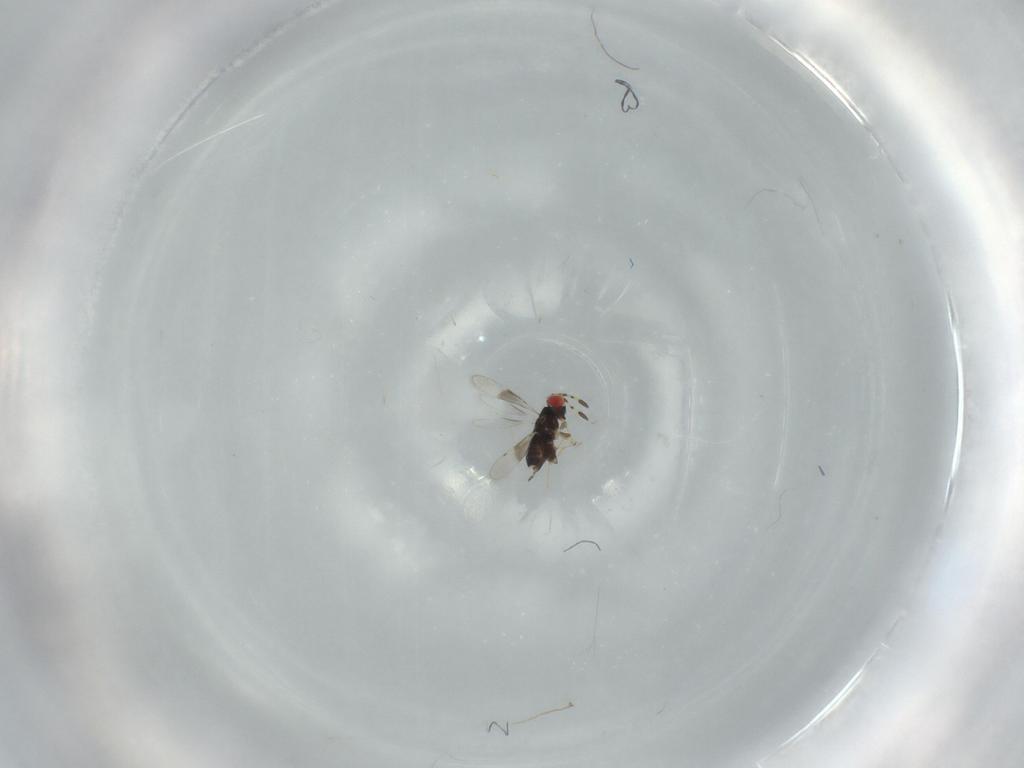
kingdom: Animalia
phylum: Arthropoda
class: Insecta
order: Hymenoptera
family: Azotidae
